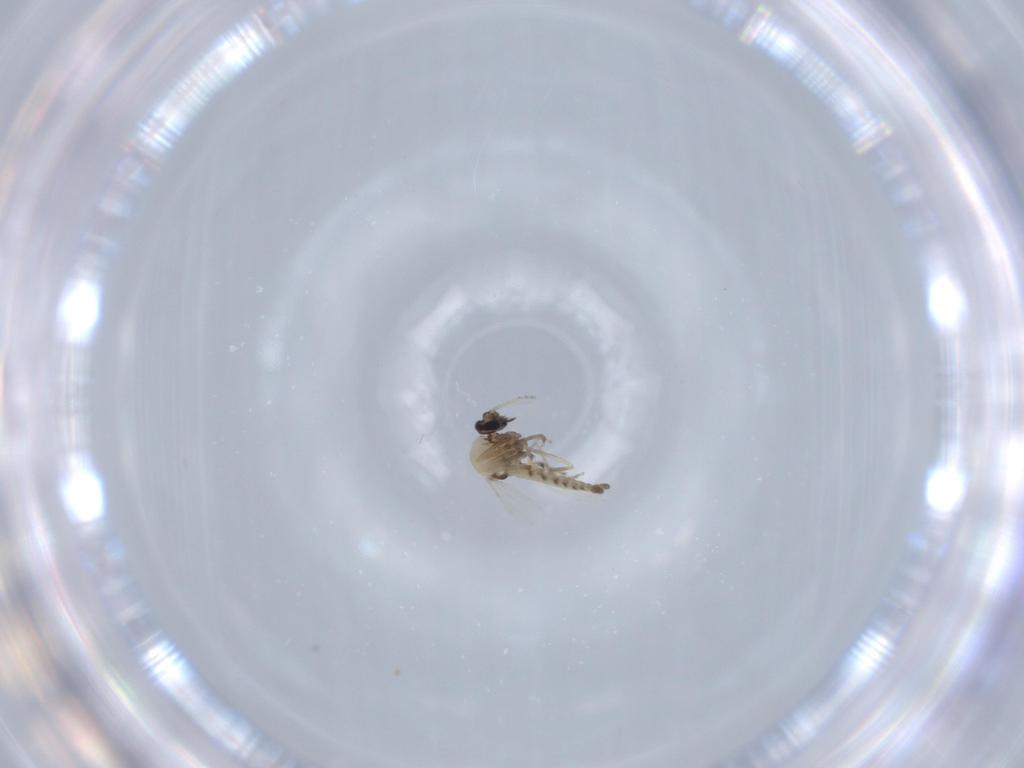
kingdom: Animalia
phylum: Arthropoda
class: Insecta
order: Diptera
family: Chironomidae
